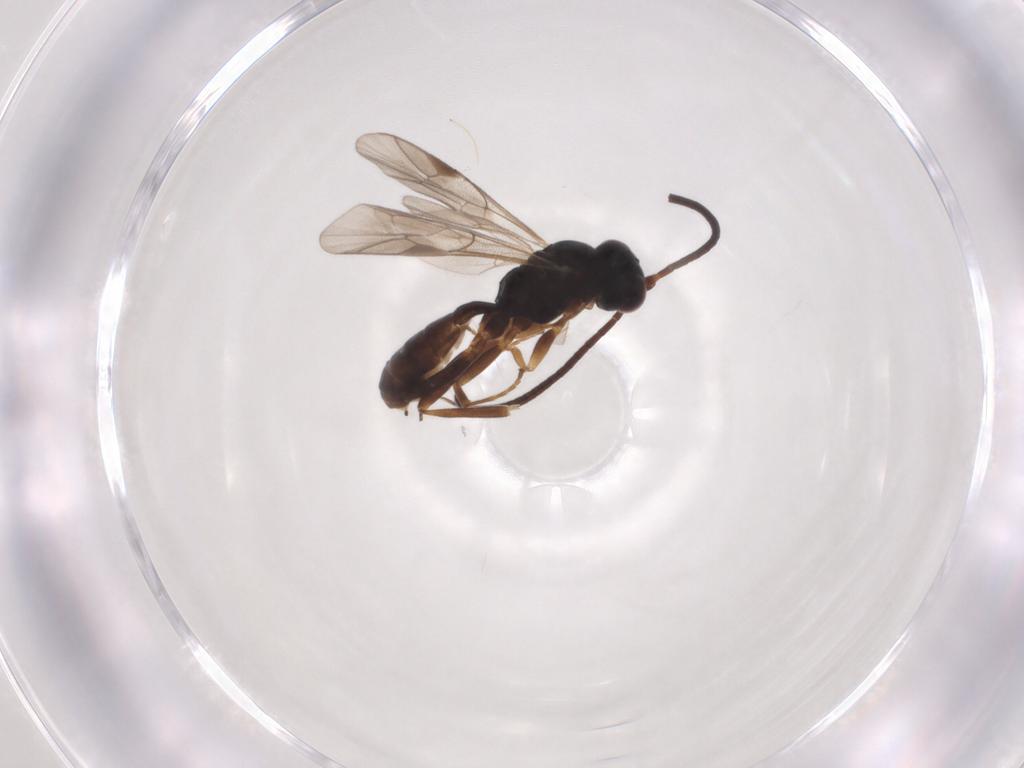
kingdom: Animalia
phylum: Arthropoda
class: Insecta
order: Hymenoptera
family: Ichneumonidae
